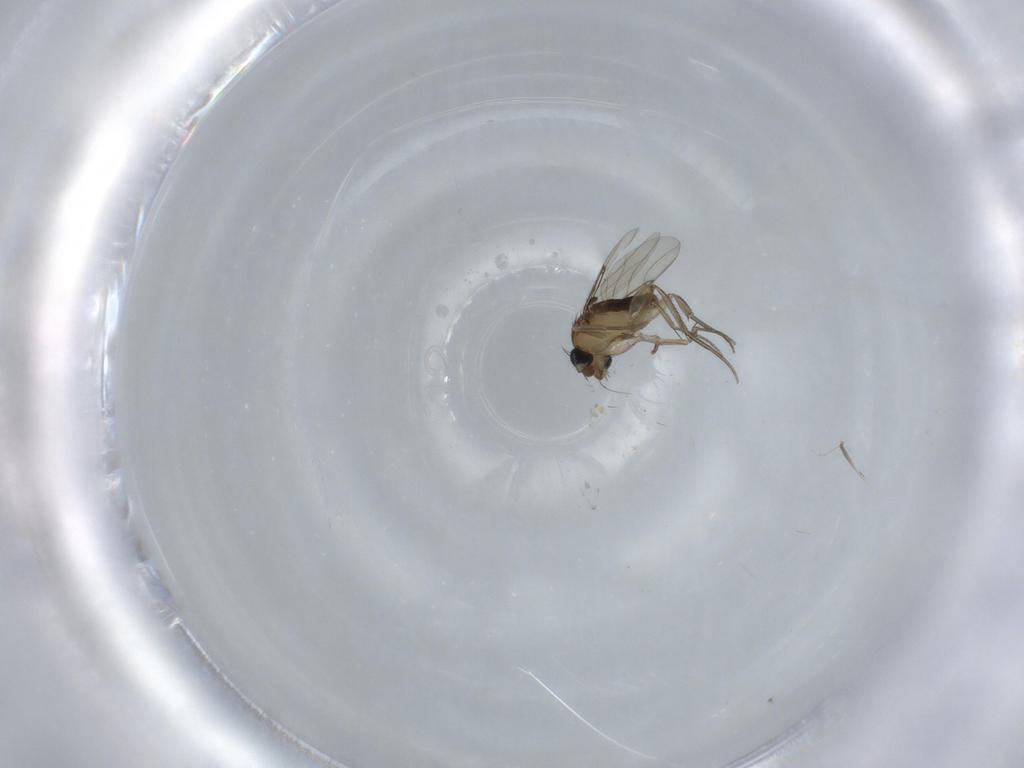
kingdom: Animalia
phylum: Arthropoda
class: Insecta
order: Diptera
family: Phoridae
